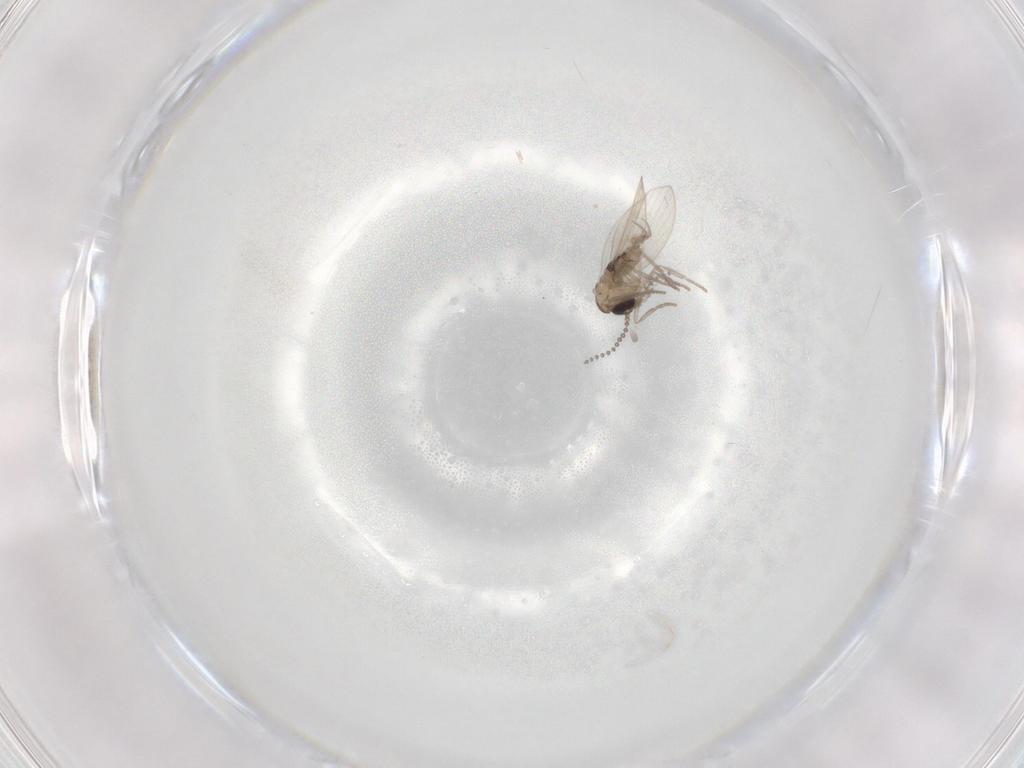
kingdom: Animalia
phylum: Arthropoda
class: Insecta
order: Diptera
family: Psychodidae
